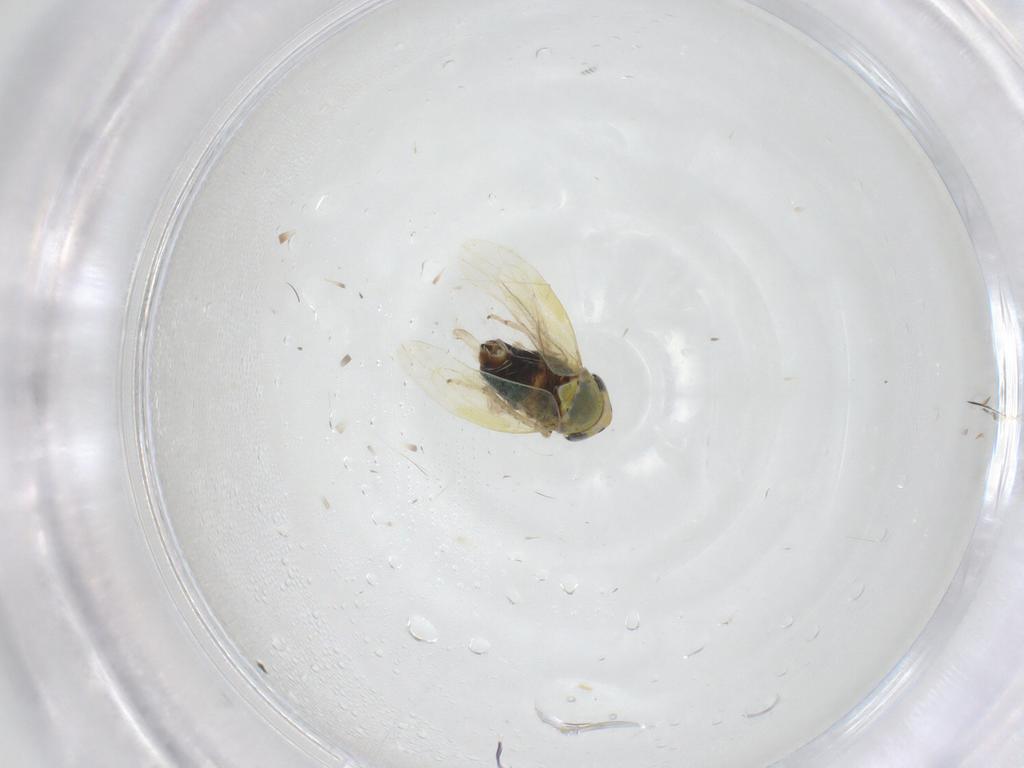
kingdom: Animalia
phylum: Arthropoda
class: Insecta
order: Hemiptera
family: Cicadellidae
